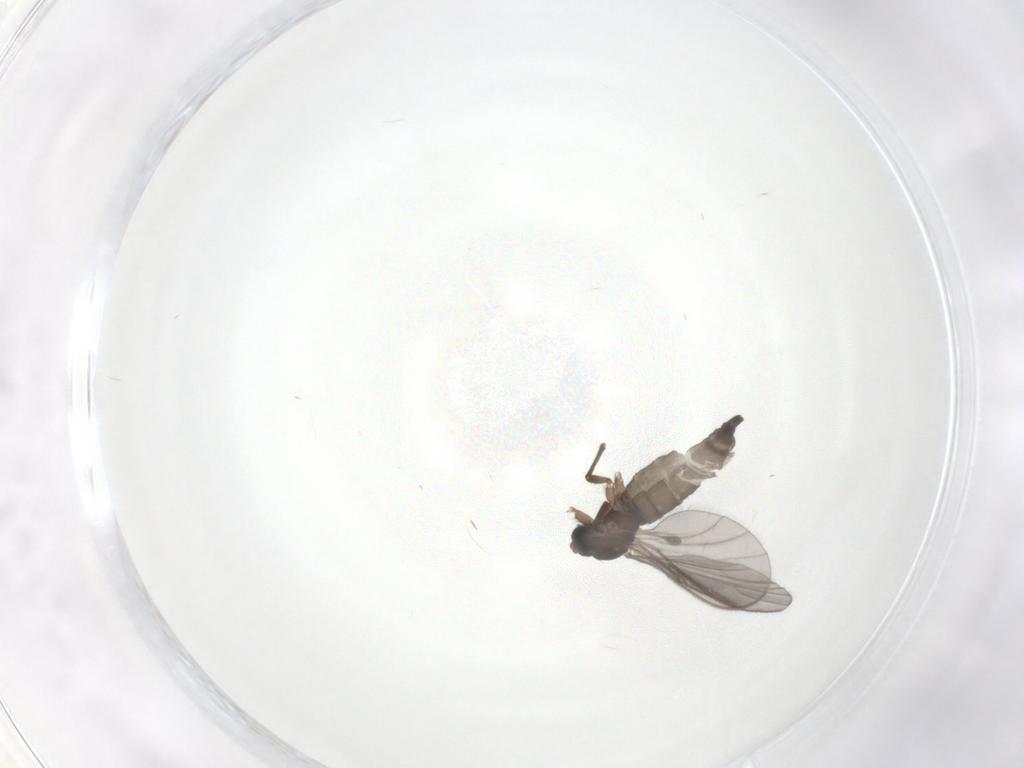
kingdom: Animalia
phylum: Arthropoda
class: Insecta
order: Diptera
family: Sciaridae
